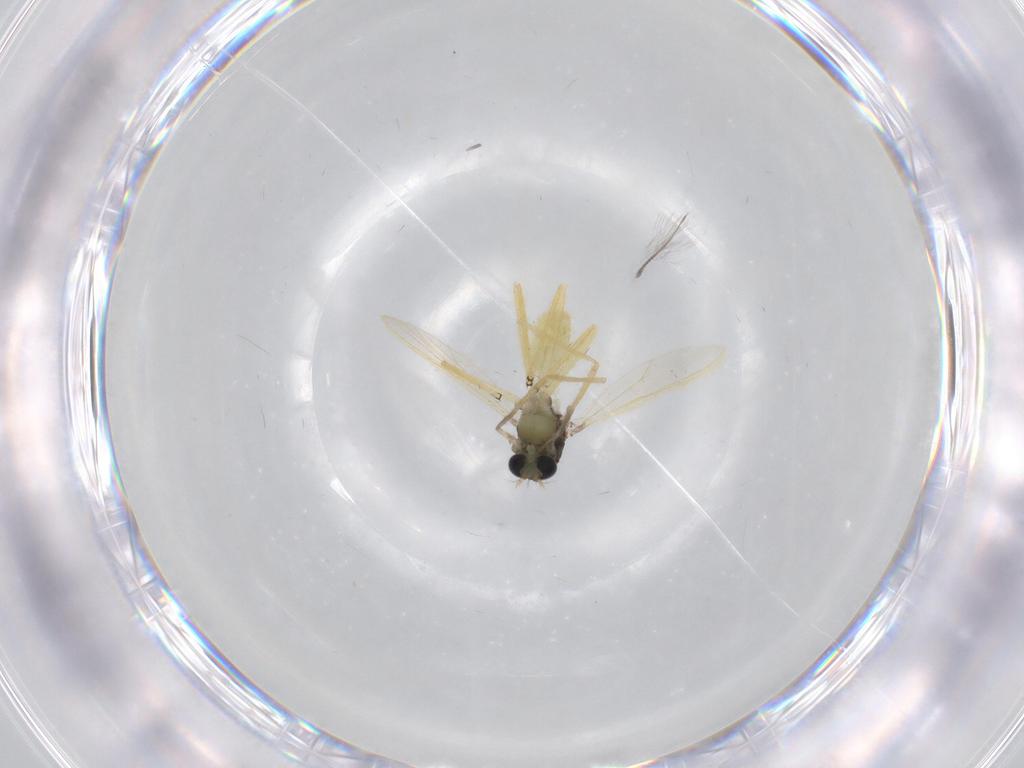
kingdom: Animalia
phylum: Arthropoda
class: Insecta
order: Diptera
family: Chironomidae
